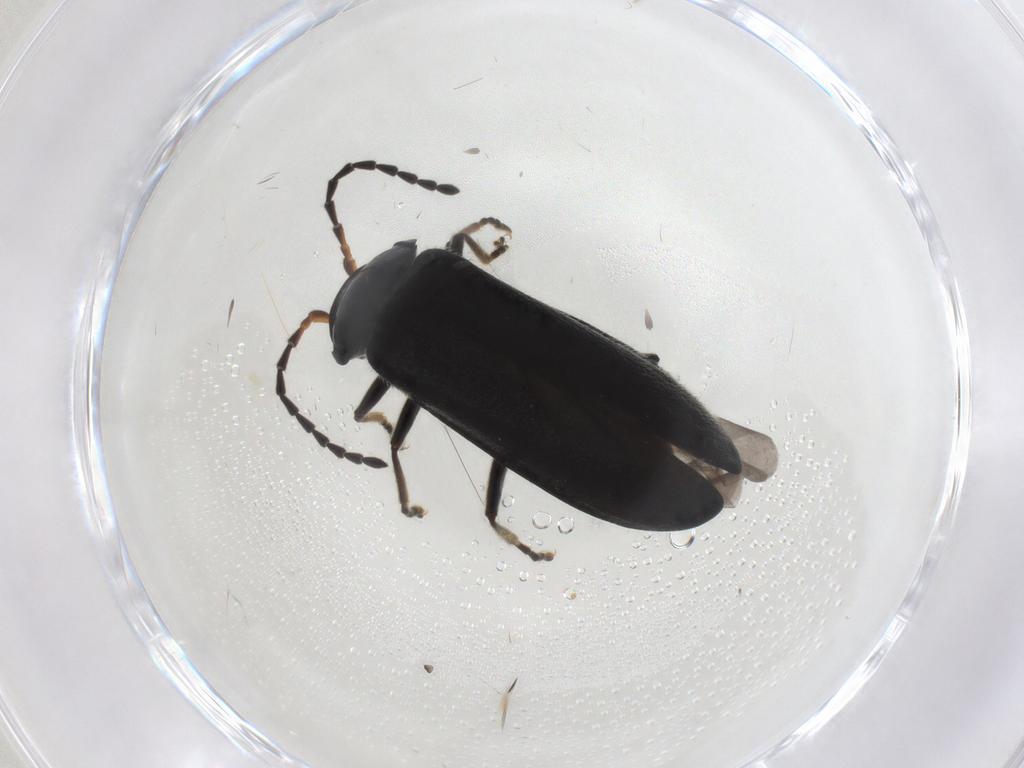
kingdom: Animalia
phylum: Arthropoda
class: Insecta
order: Coleoptera
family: Cantharidae
